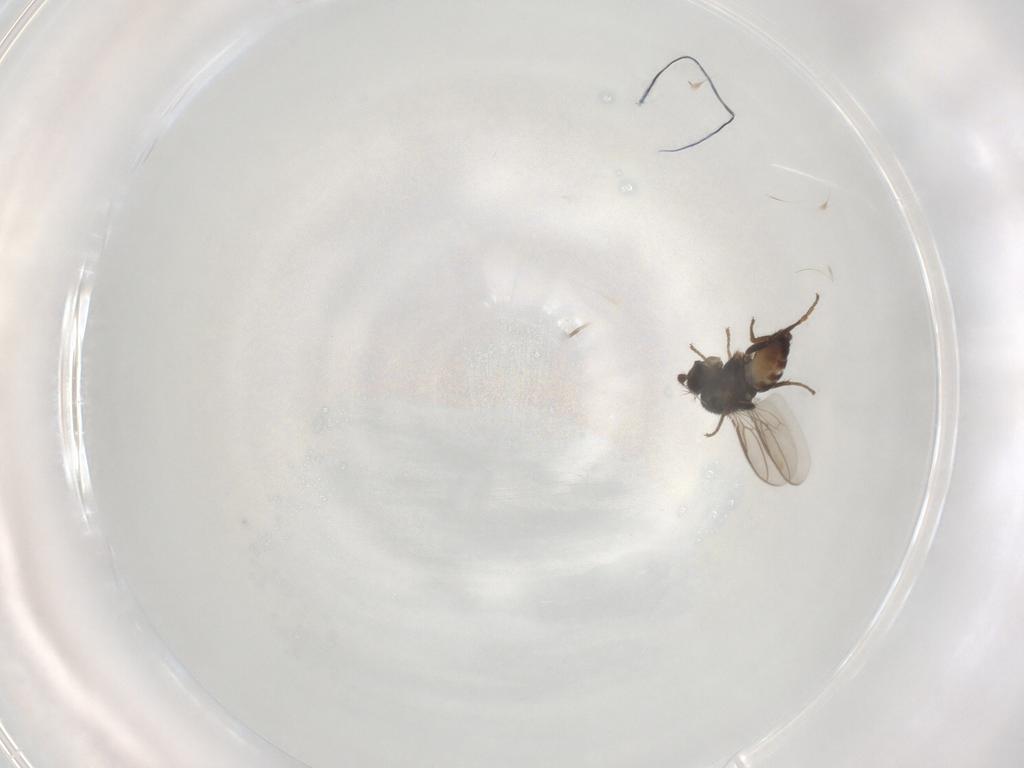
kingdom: Animalia
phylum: Arthropoda
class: Insecta
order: Diptera
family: Sphaeroceridae
